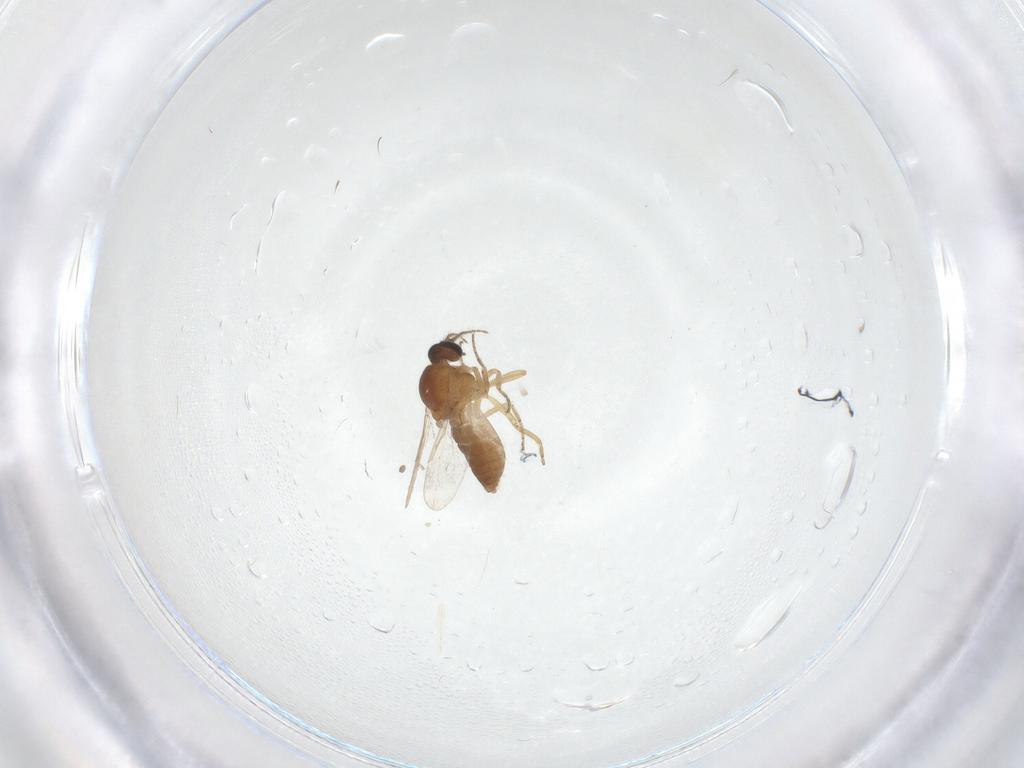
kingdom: Animalia
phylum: Arthropoda
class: Insecta
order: Diptera
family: Ceratopogonidae
